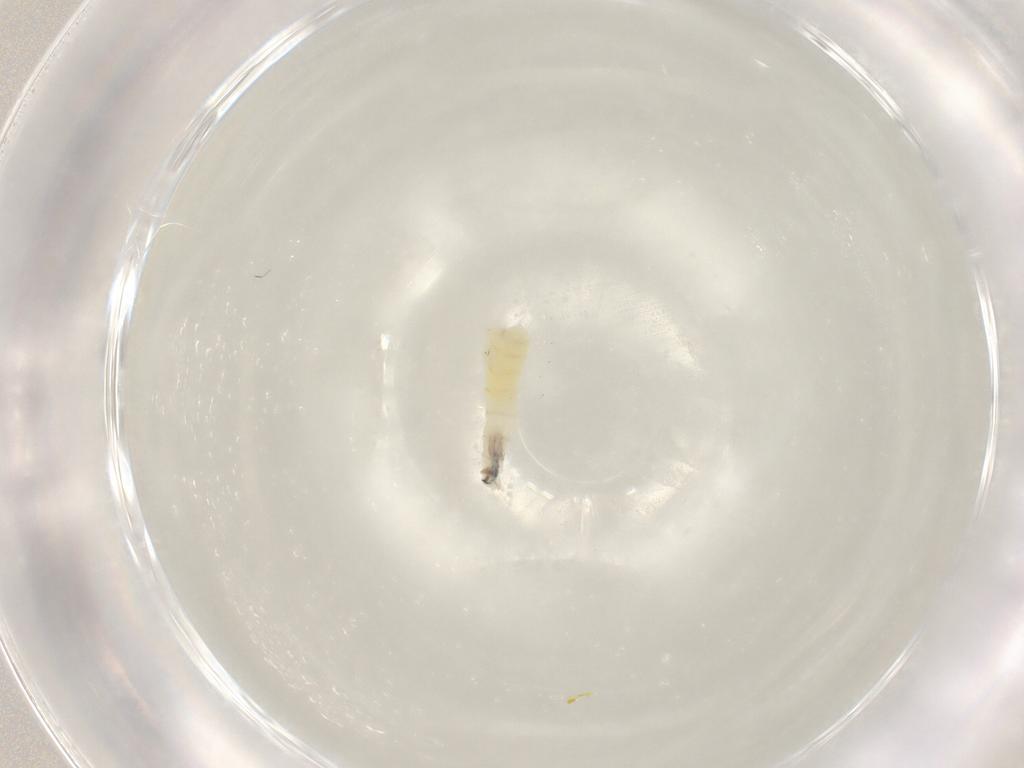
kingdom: Animalia
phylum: Arthropoda
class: Insecta
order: Diptera
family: Sarcophagidae
